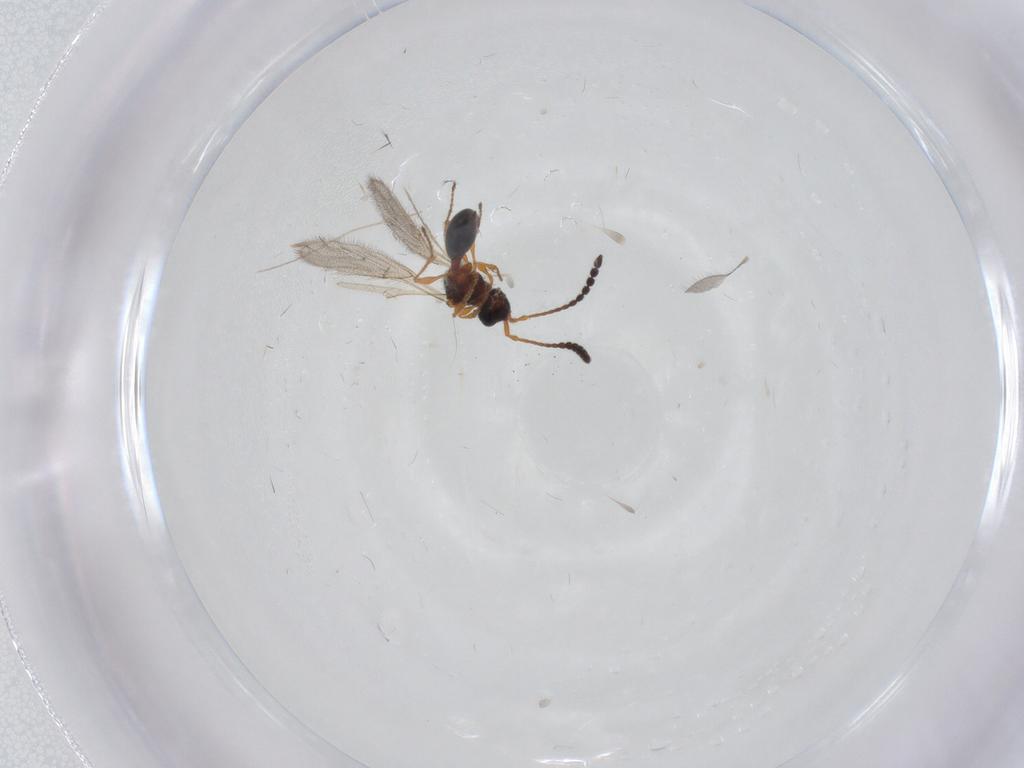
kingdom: Animalia
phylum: Arthropoda
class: Insecta
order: Hymenoptera
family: Diapriidae
